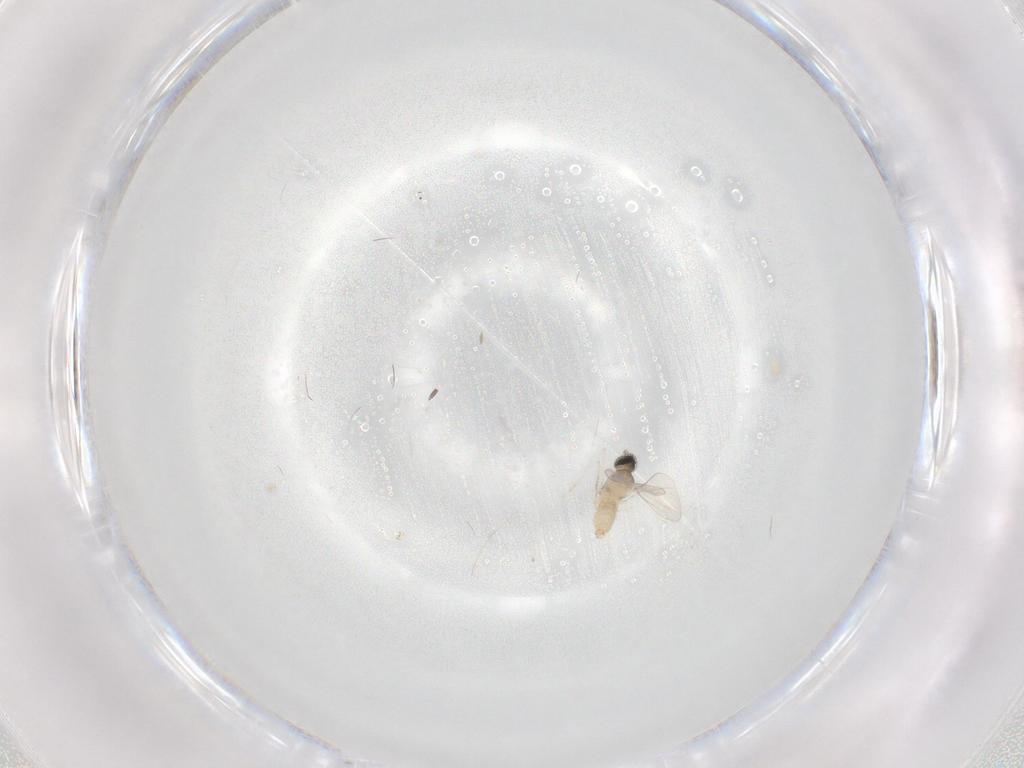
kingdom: Animalia
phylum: Arthropoda
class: Insecta
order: Diptera
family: Cecidomyiidae
